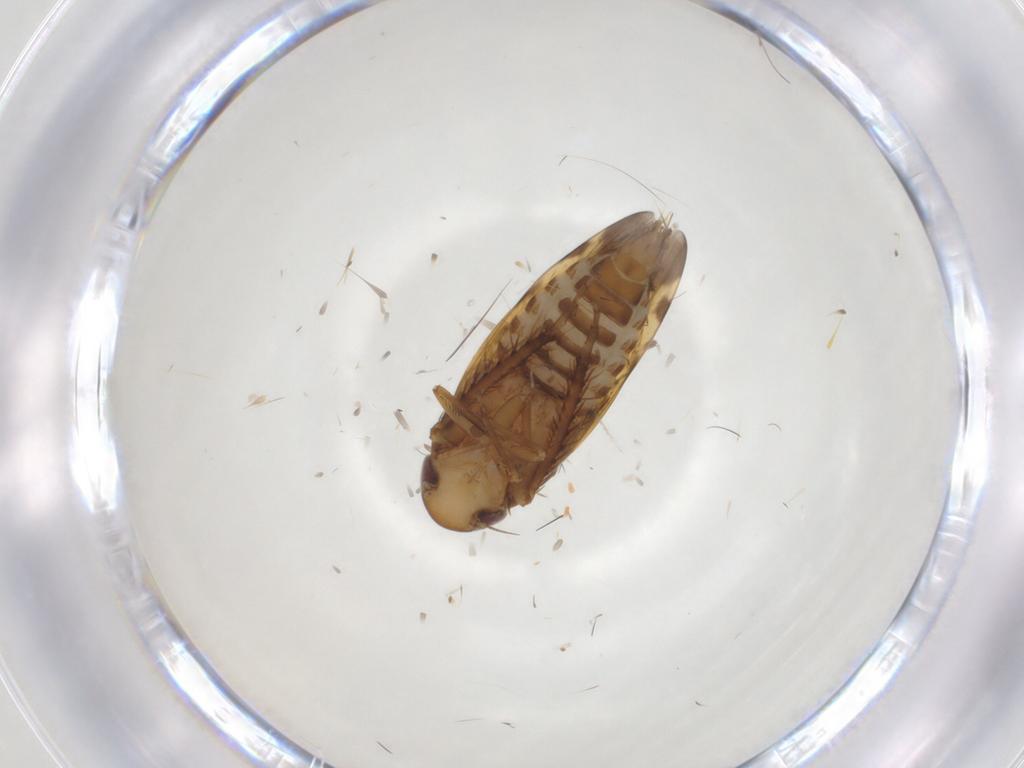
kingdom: Animalia
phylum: Arthropoda
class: Insecta
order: Hemiptera
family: Cicadellidae
